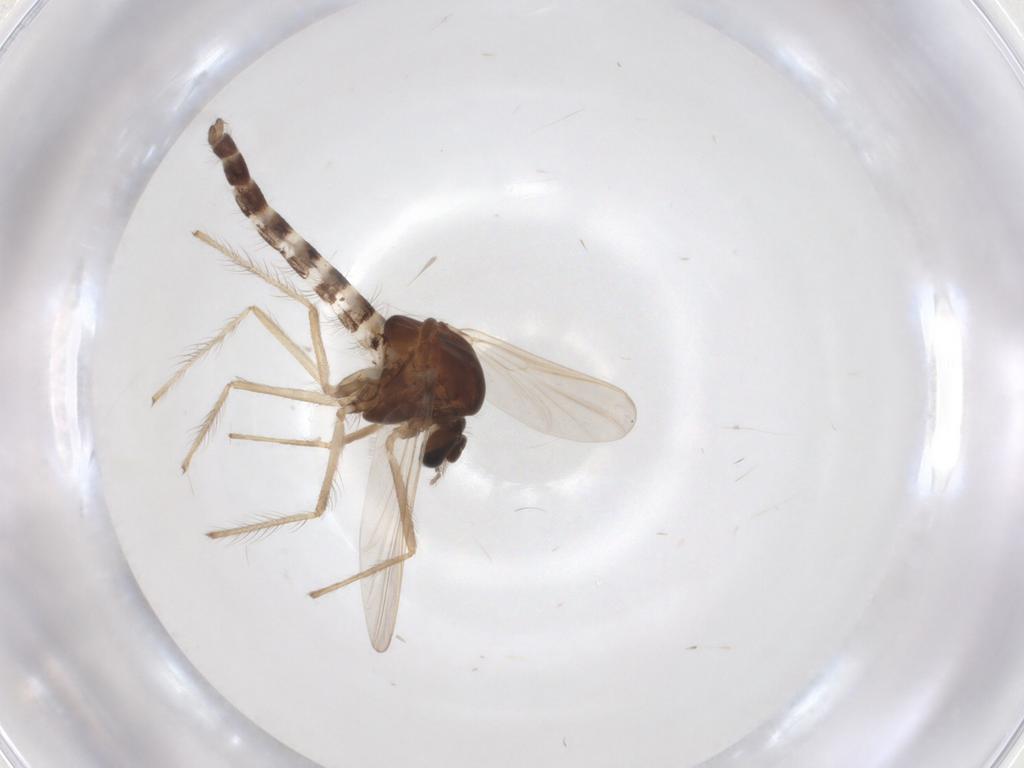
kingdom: Animalia
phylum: Arthropoda
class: Insecta
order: Diptera
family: Chironomidae
